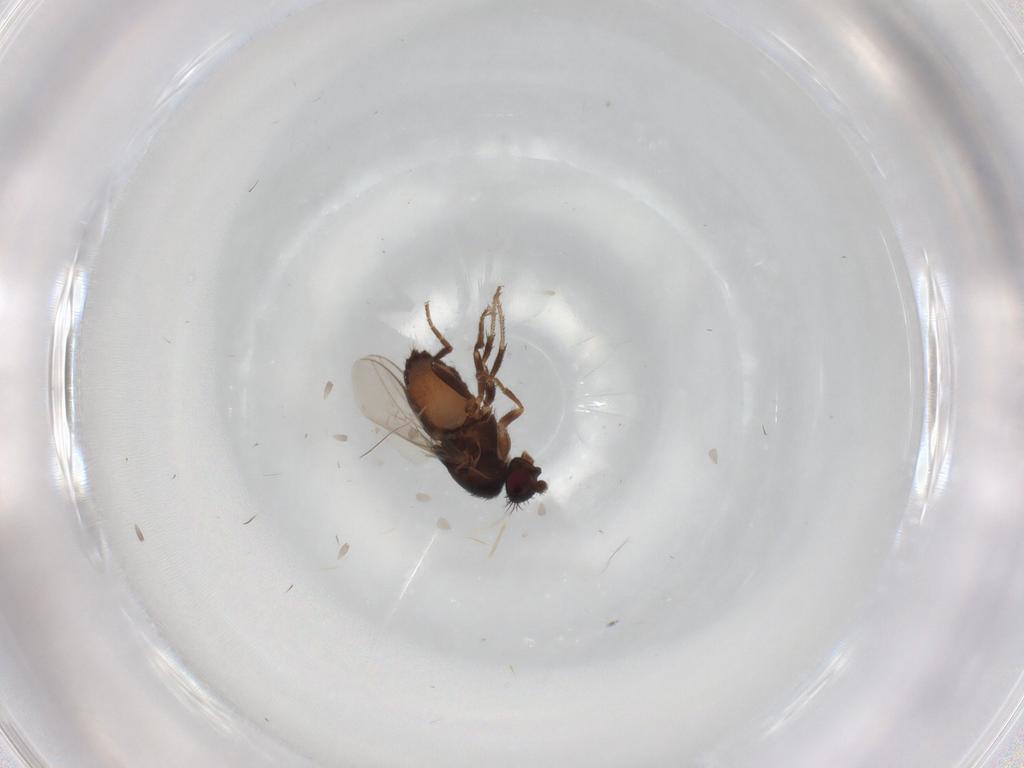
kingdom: Animalia
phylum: Arthropoda
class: Insecta
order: Diptera
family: Sphaeroceridae
